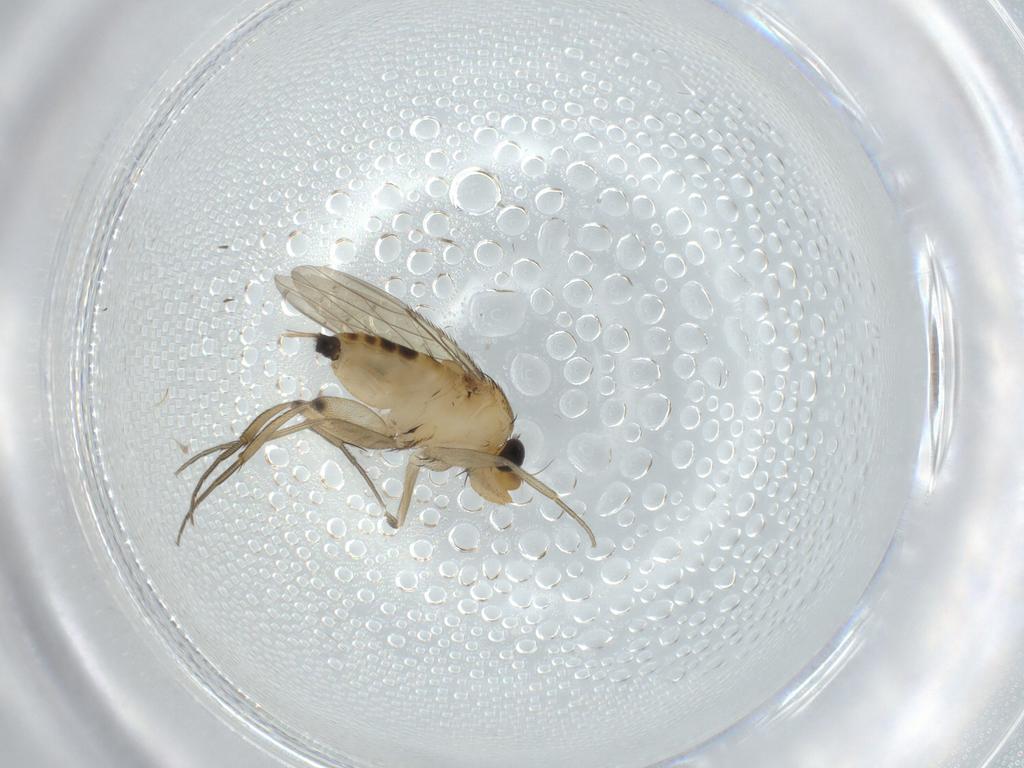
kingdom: Animalia
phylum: Arthropoda
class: Insecta
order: Diptera
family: Phoridae
